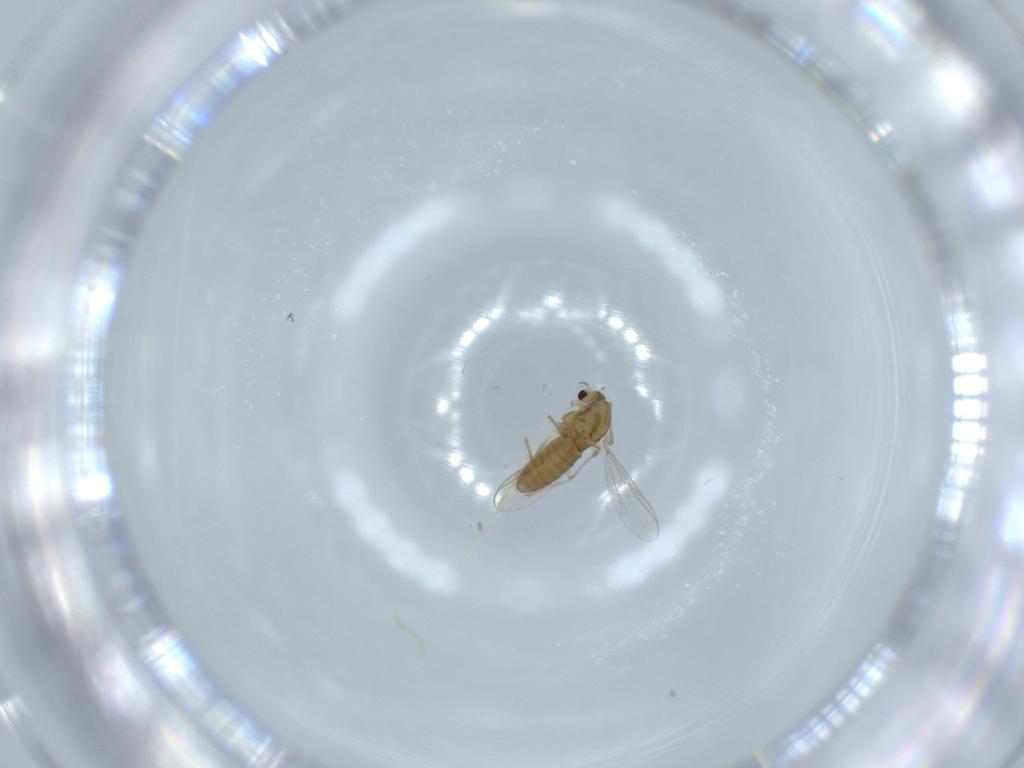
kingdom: Animalia
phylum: Arthropoda
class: Insecta
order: Diptera
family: Chironomidae
